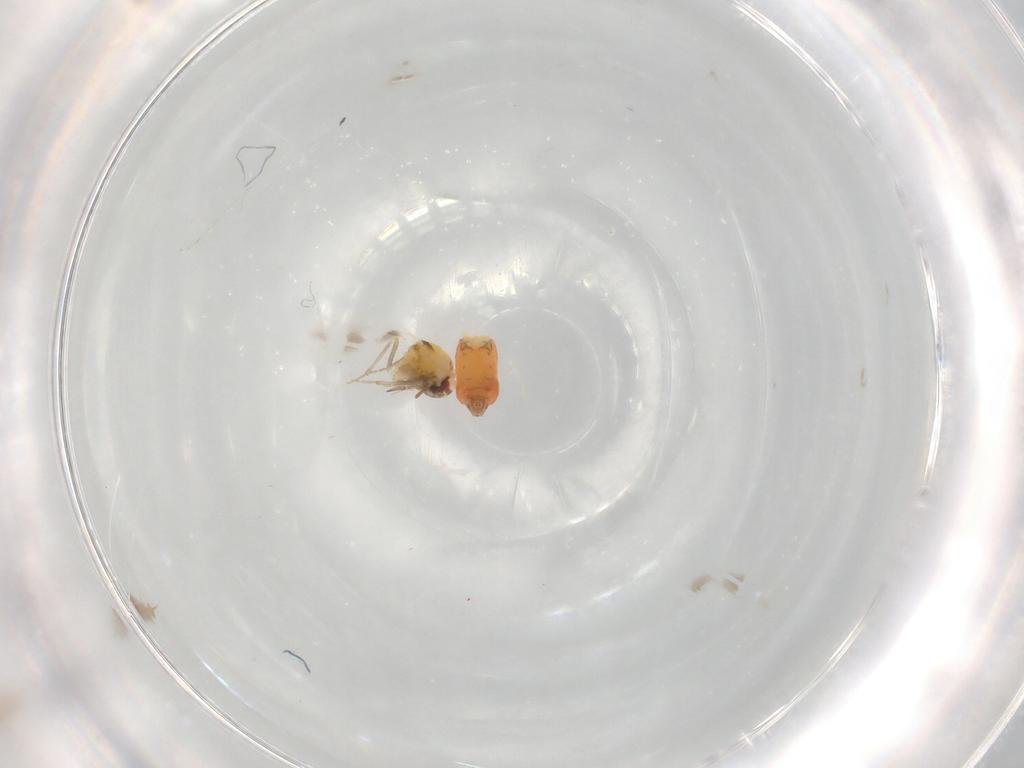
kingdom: Animalia
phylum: Arthropoda
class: Insecta
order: Hemiptera
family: Aleyrodidae
